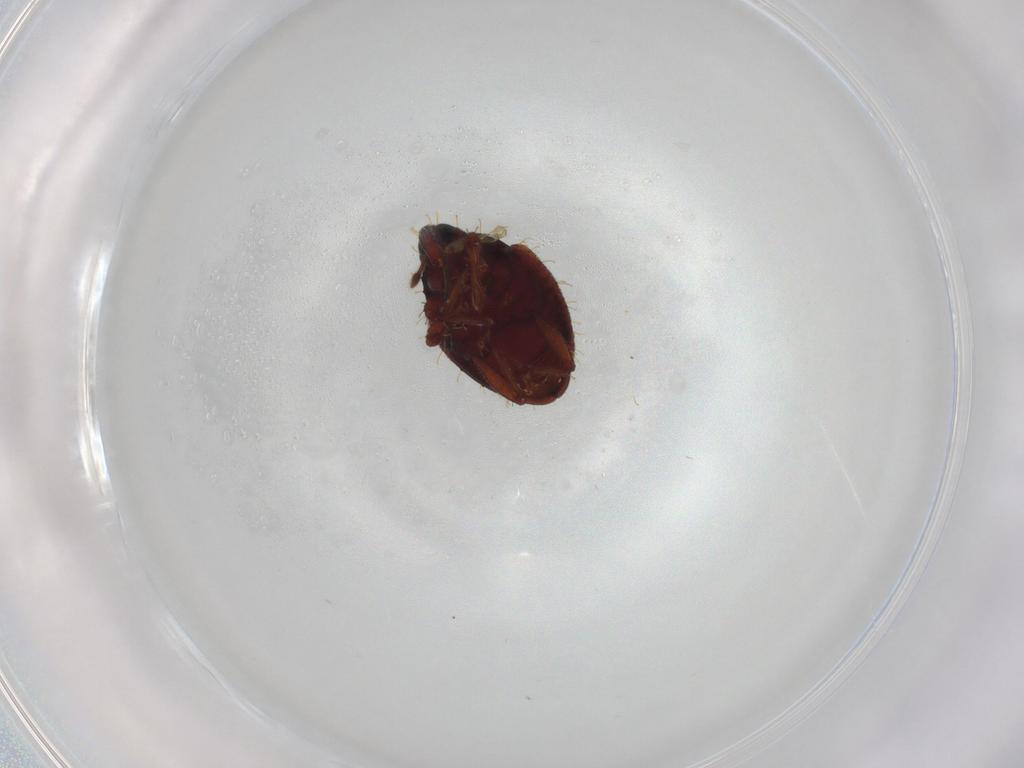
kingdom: Animalia
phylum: Arthropoda
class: Insecta
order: Diptera
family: Chironomidae
